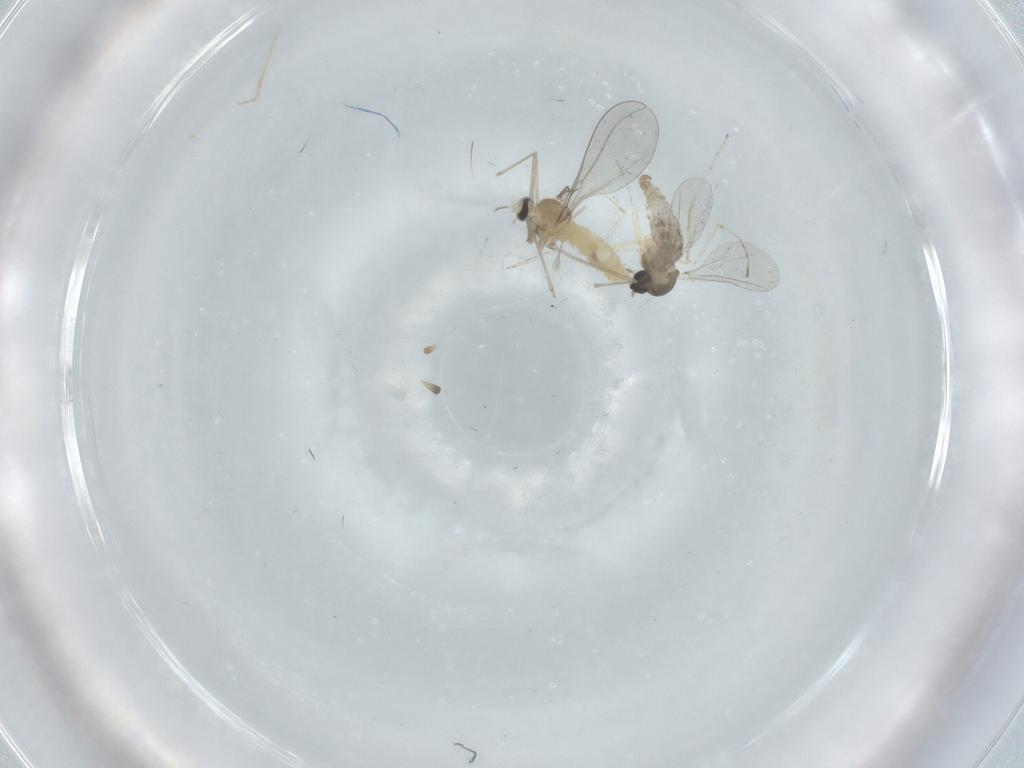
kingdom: Animalia
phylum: Arthropoda
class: Insecta
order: Diptera
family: Cecidomyiidae
